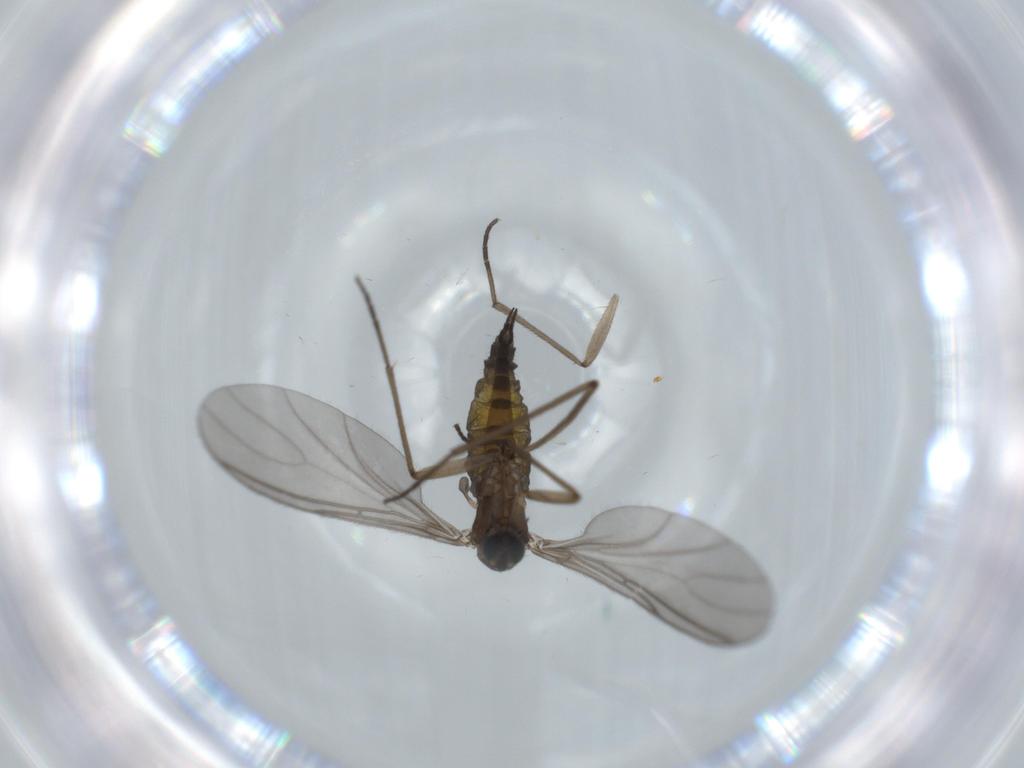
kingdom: Animalia
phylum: Arthropoda
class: Insecta
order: Diptera
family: Sciaridae
